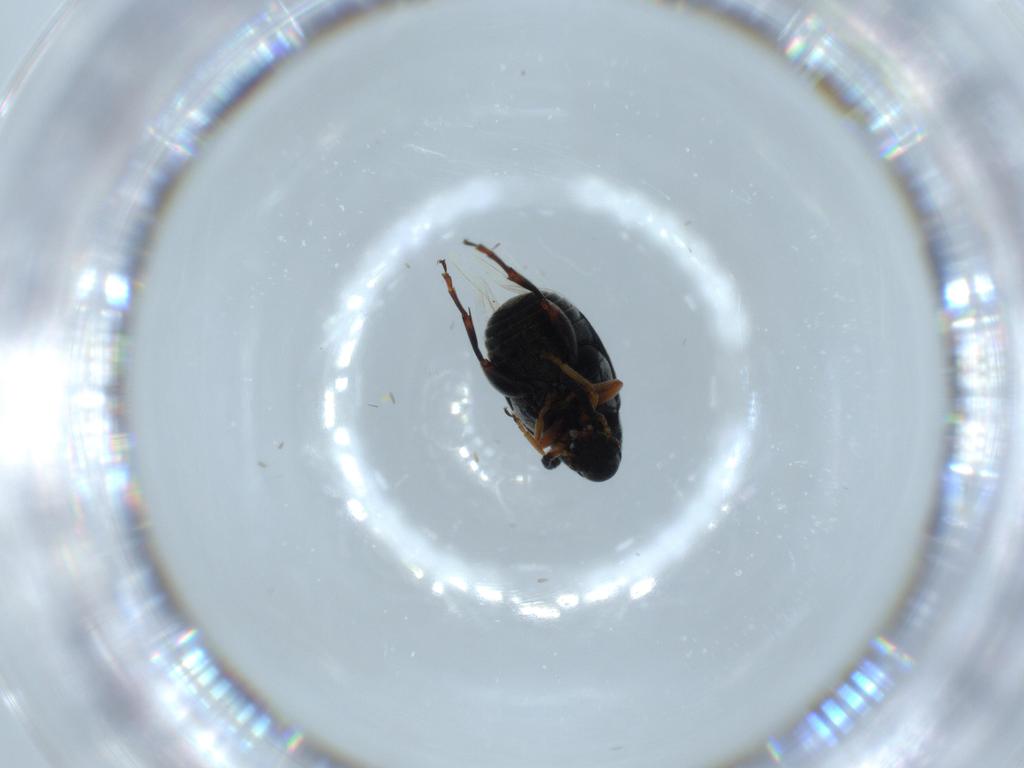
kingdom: Animalia
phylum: Arthropoda
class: Insecta
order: Coleoptera
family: Chrysomelidae
